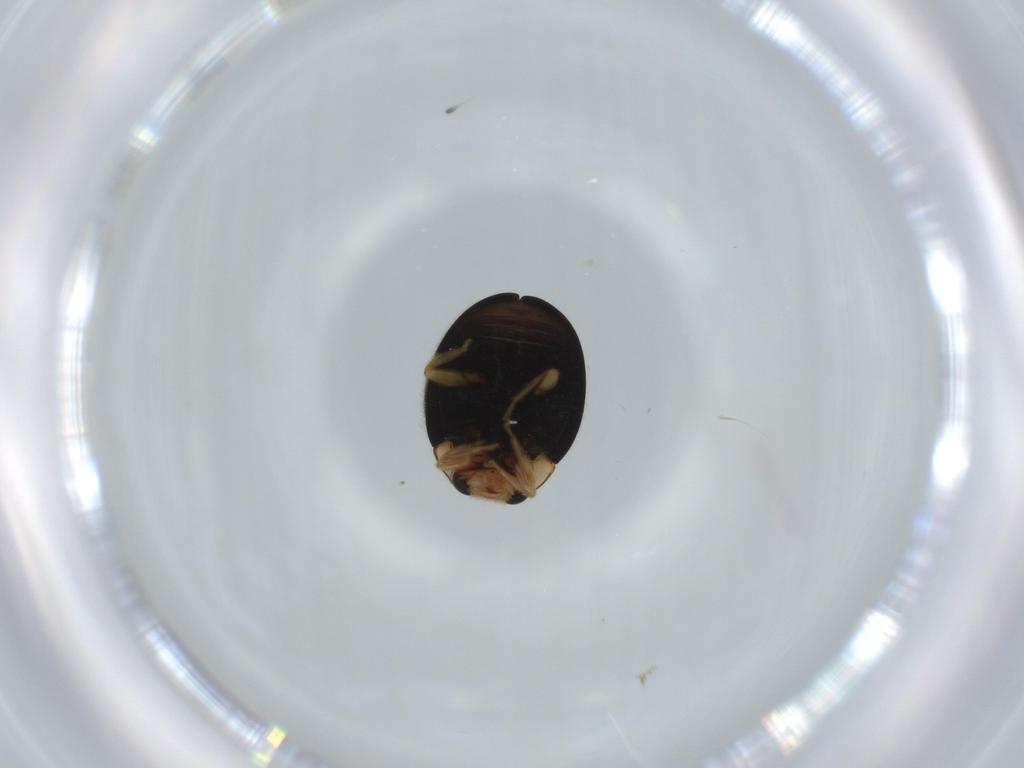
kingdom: Animalia
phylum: Arthropoda
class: Insecta
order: Coleoptera
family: Coccinellidae
